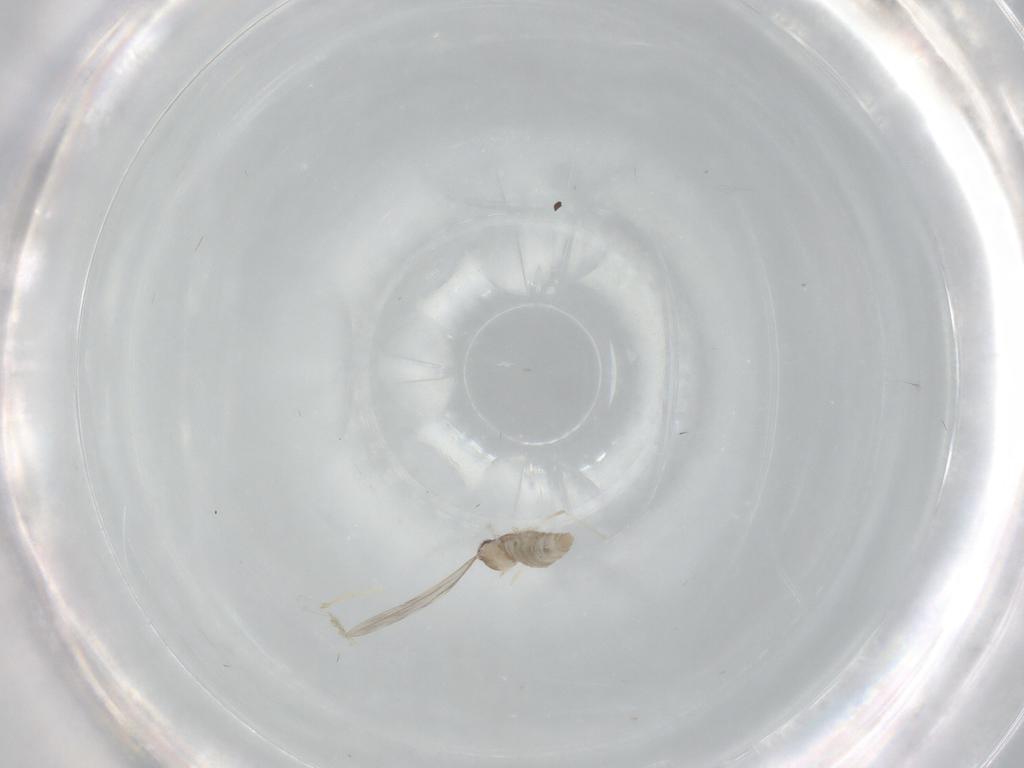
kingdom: Animalia
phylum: Arthropoda
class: Insecta
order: Diptera
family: Cecidomyiidae
